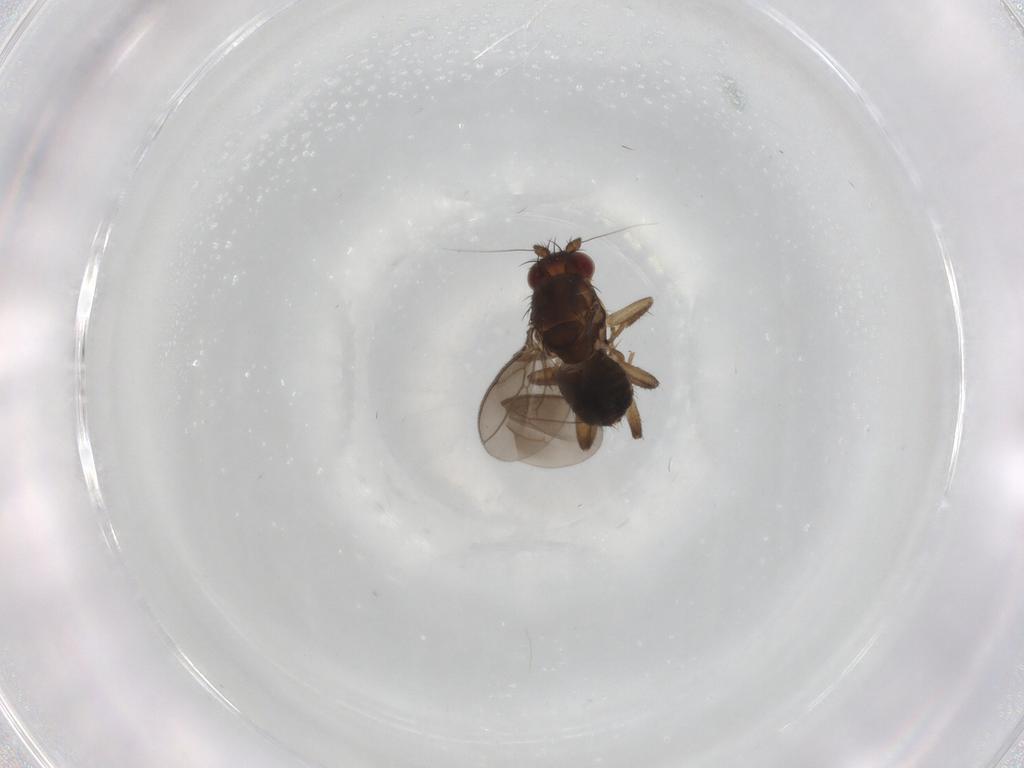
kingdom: Animalia
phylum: Arthropoda
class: Insecta
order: Diptera
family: Sphaeroceridae
